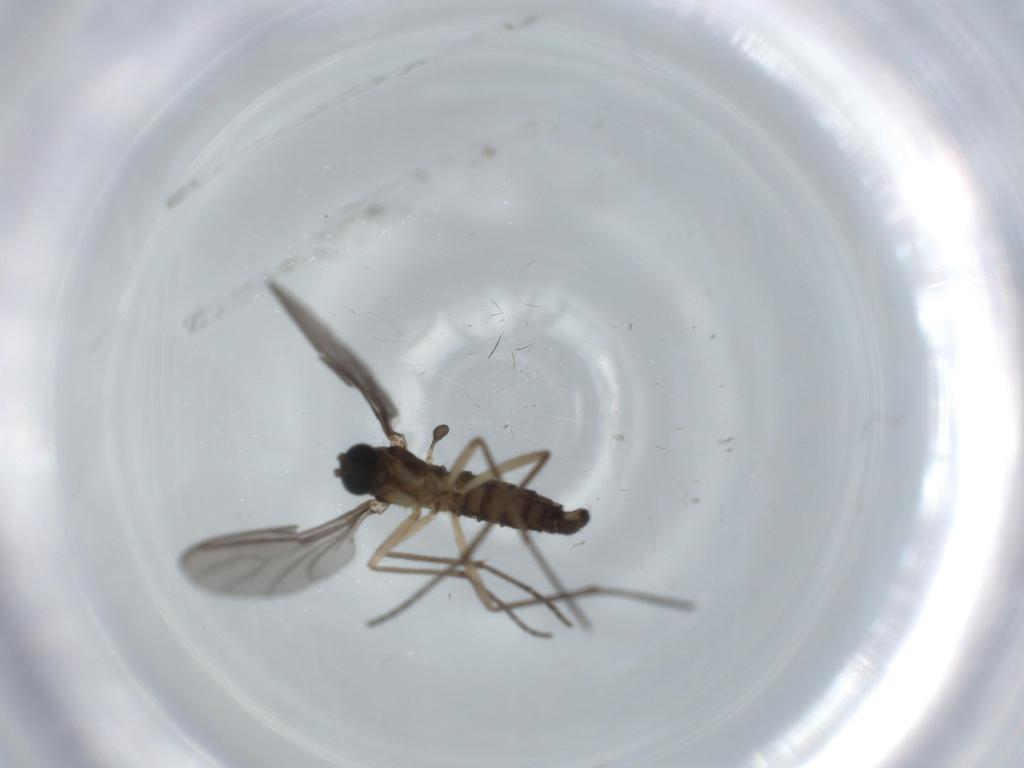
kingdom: Animalia
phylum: Arthropoda
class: Insecta
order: Diptera
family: Sciaridae
